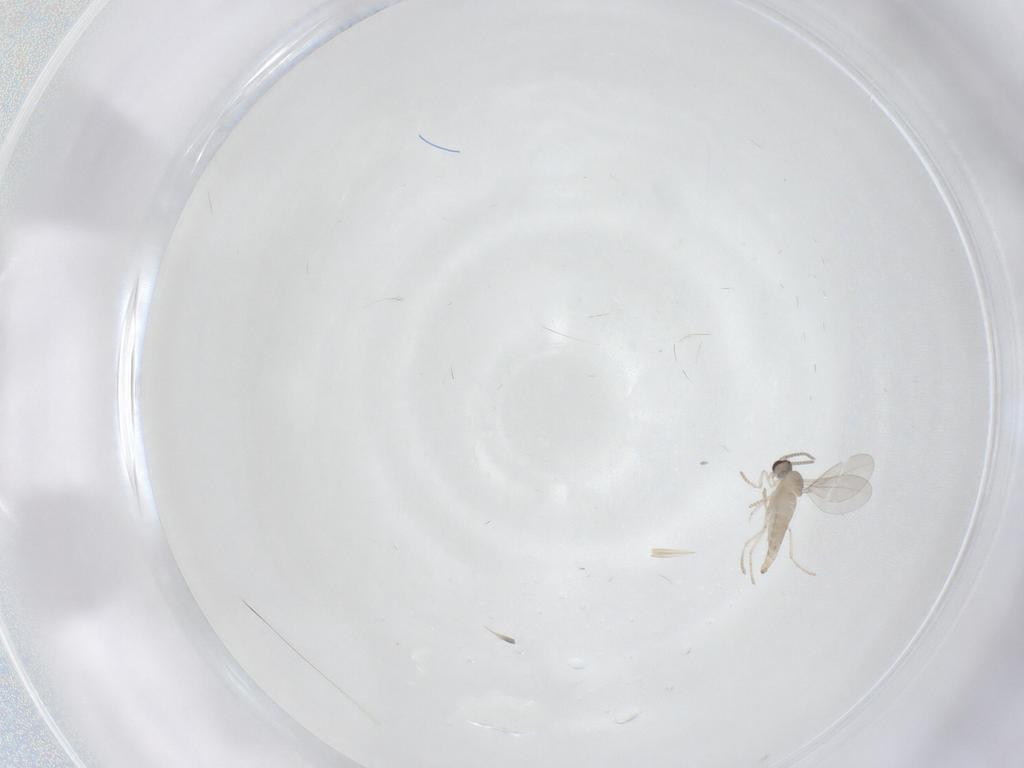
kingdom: Animalia
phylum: Arthropoda
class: Insecta
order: Diptera
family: Cecidomyiidae
